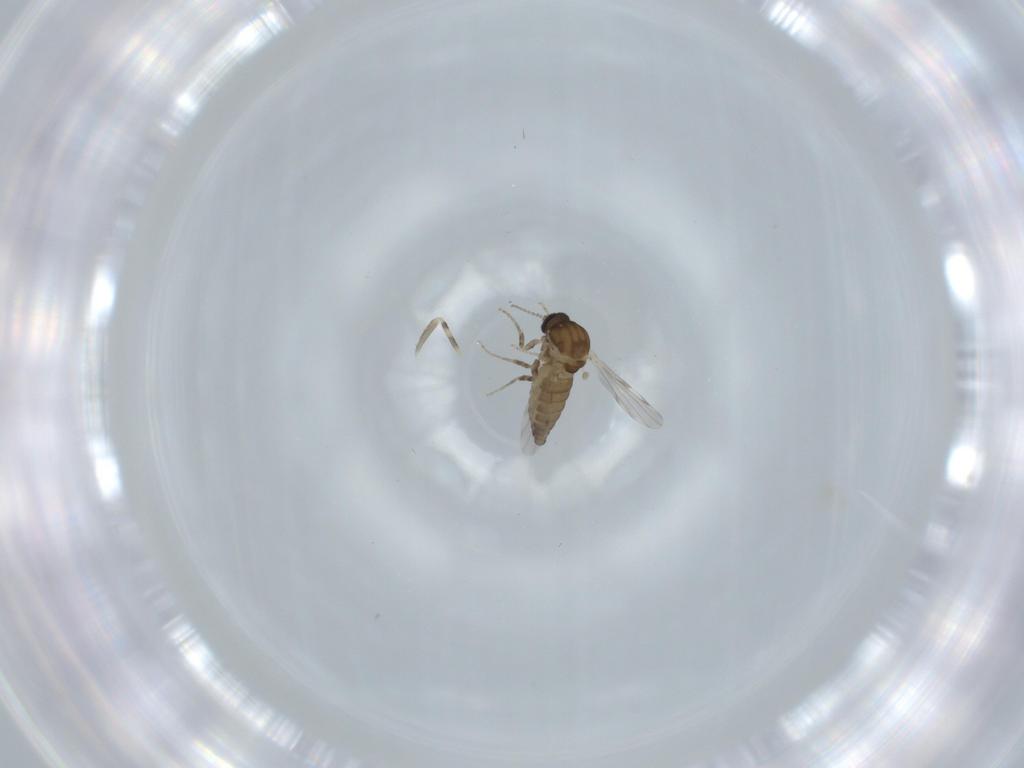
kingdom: Animalia
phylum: Arthropoda
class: Insecta
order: Diptera
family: Ceratopogonidae
